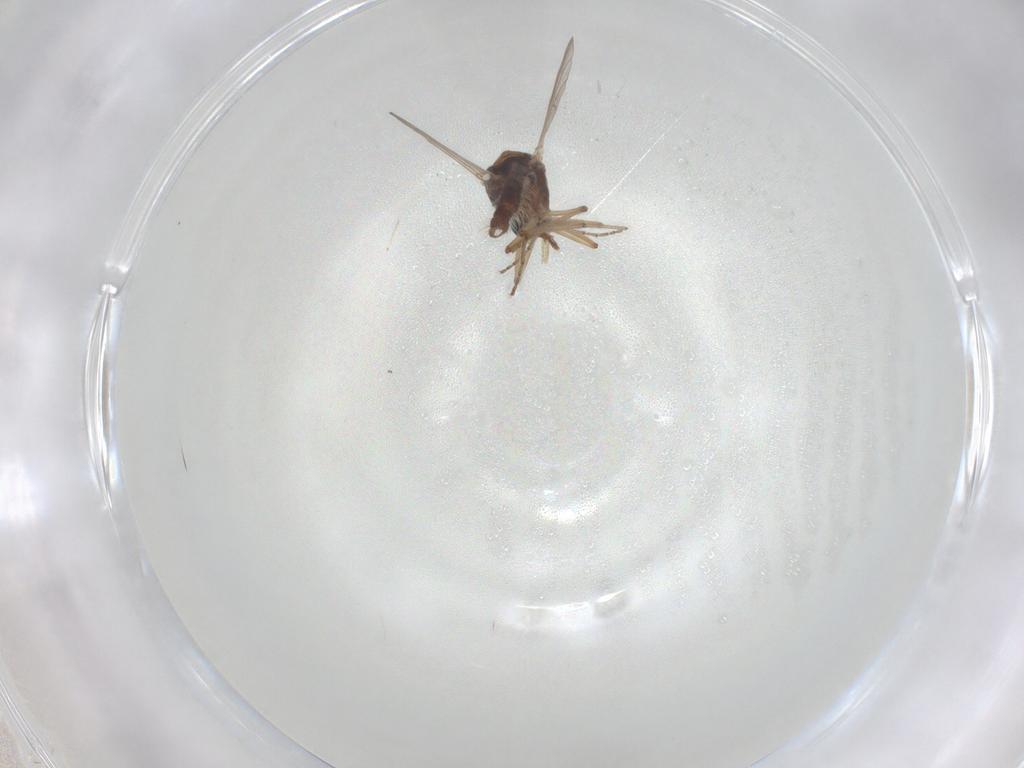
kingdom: Animalia
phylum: Arthropoda
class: Insecta
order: Diptera
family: Ceratopogonidae
